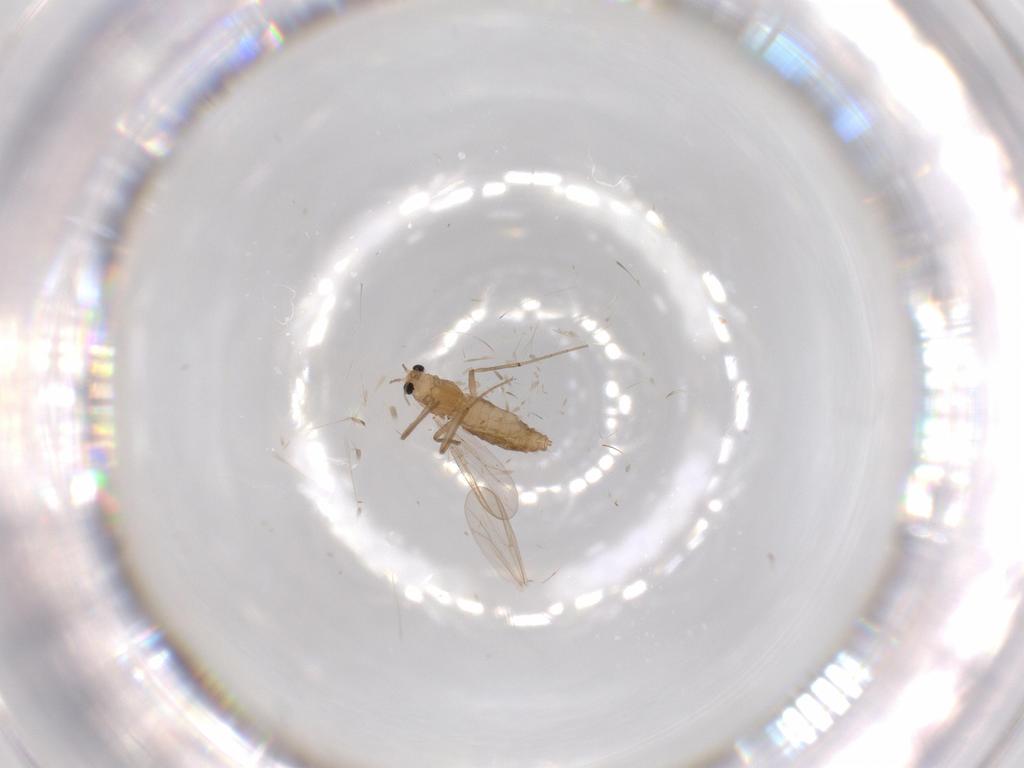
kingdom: Animalia
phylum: Arthropoda
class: Insecta
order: Diptera
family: Chironomidae
